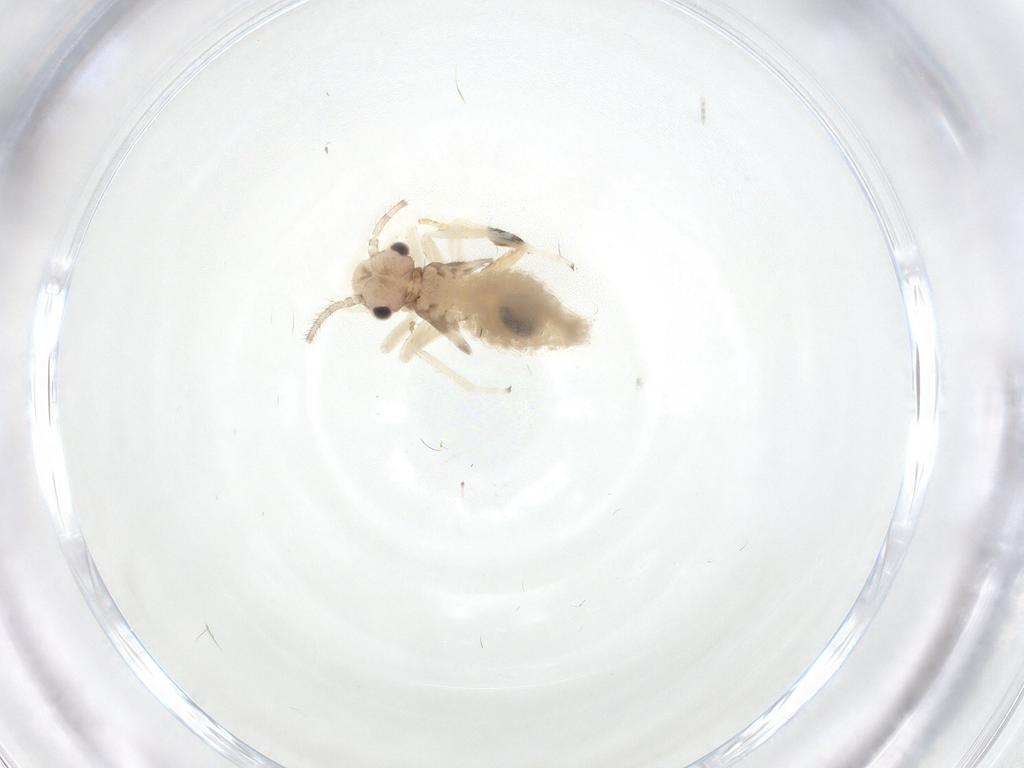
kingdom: Animalia
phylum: Arthropoda
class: Insecta
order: Psocodea
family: Amphipsocidae
